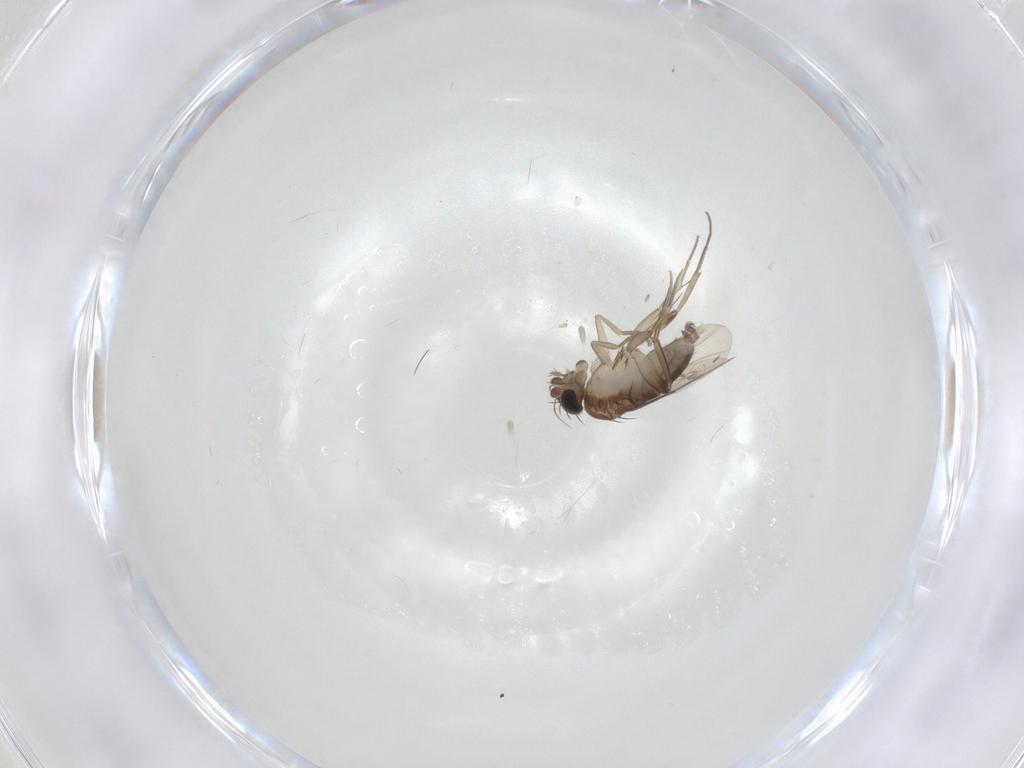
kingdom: Animalia
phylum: Arthropoda
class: Insecta
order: Diptera
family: Phoridae
